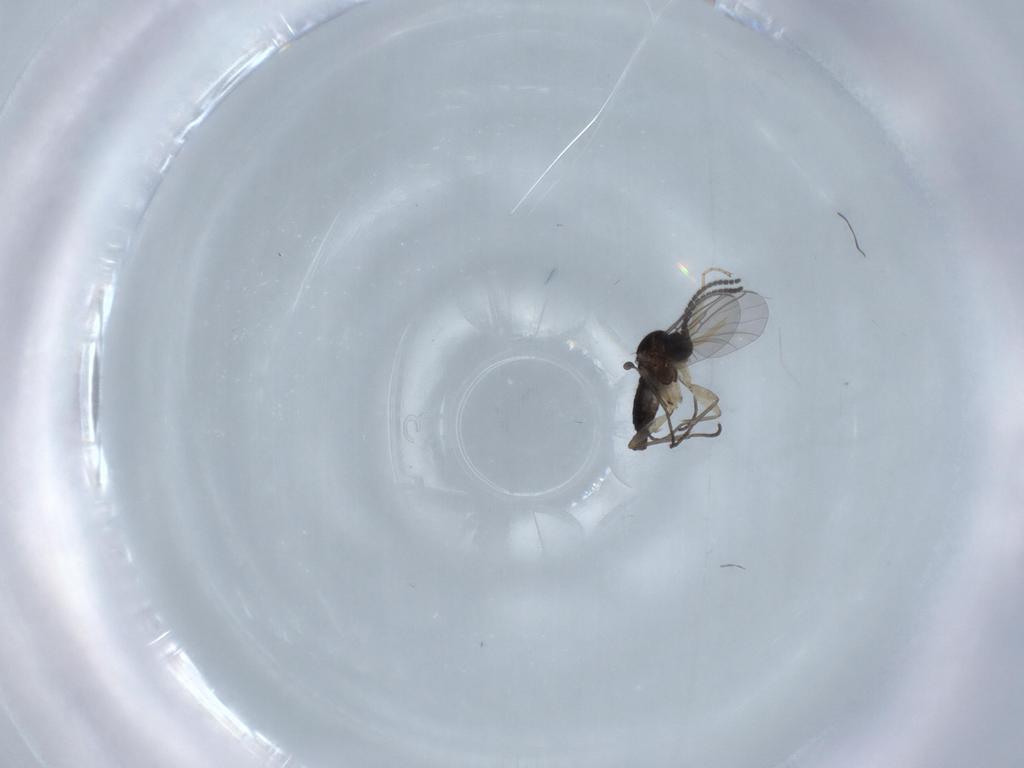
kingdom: Animalia
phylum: Arthropoda
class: Insecta
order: Diptera
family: Sciaridae
